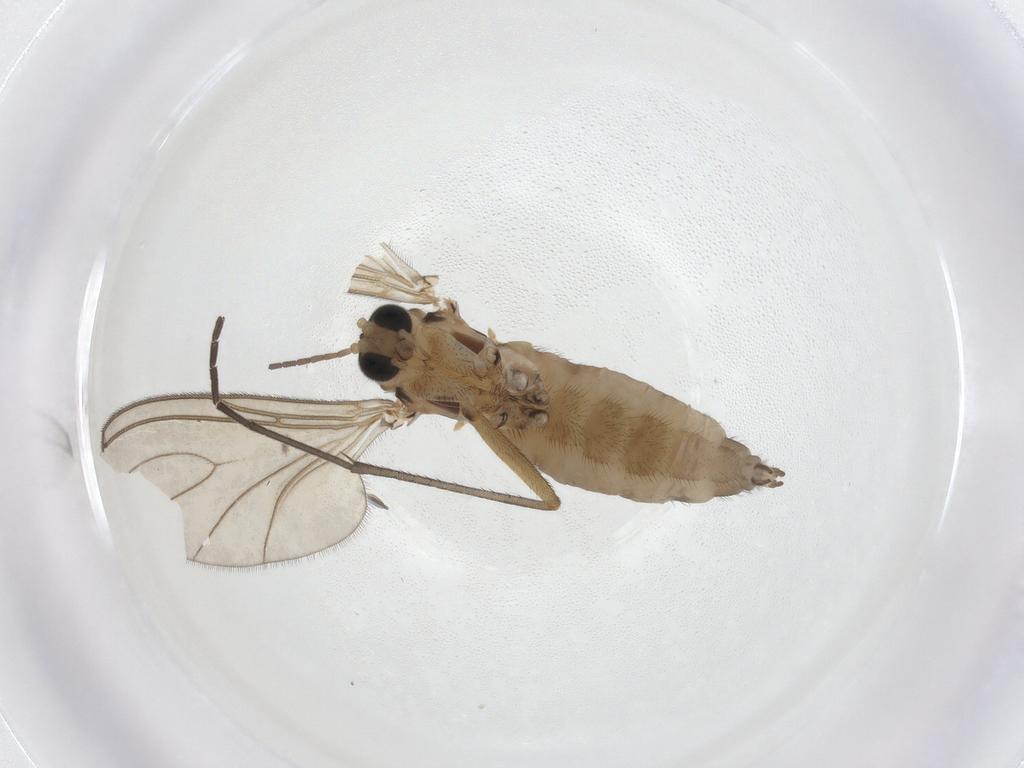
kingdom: Animalia
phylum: Arthropoda
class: Insecta
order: Diptera
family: Sciaridae
